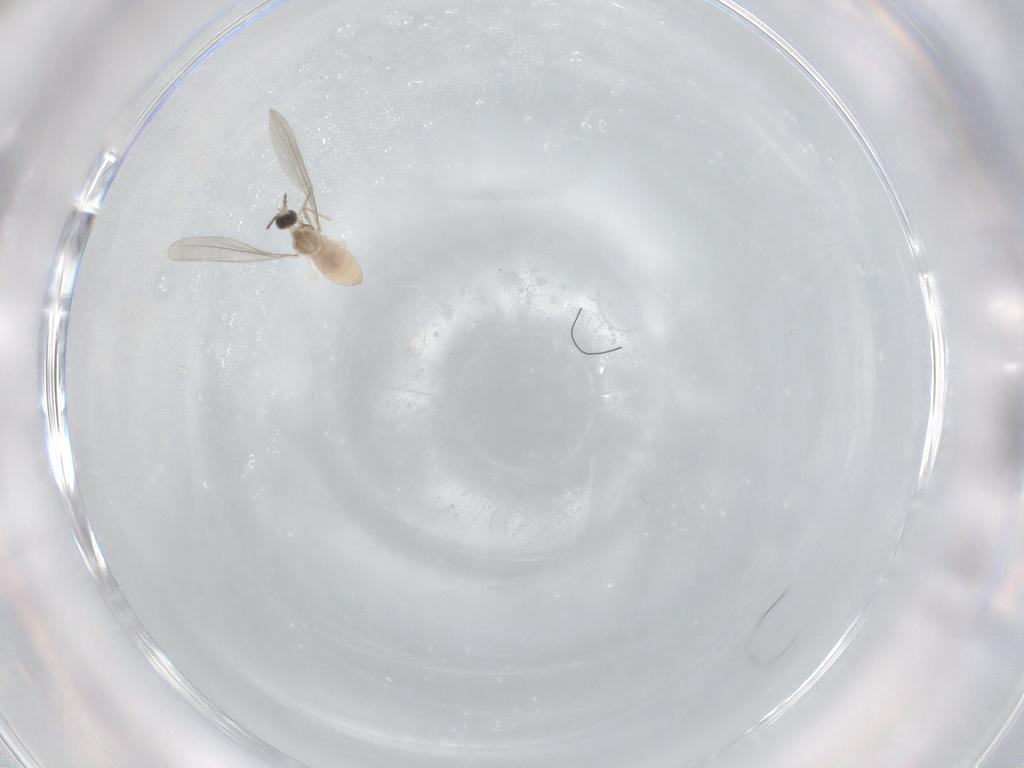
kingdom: Animalia
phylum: Arthropoda
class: Insecta
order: Diptera
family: Cecidomyiidae
